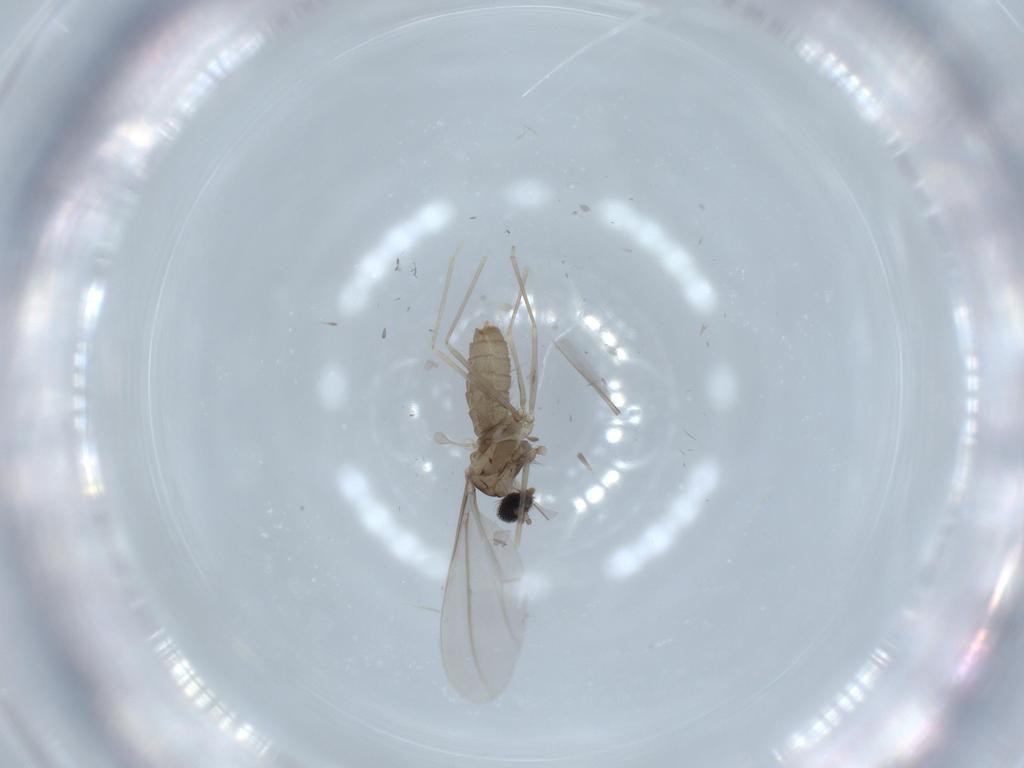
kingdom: Animalia
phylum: Arthropoda
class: Insecta
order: Diptera
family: Cecidomyiidae
